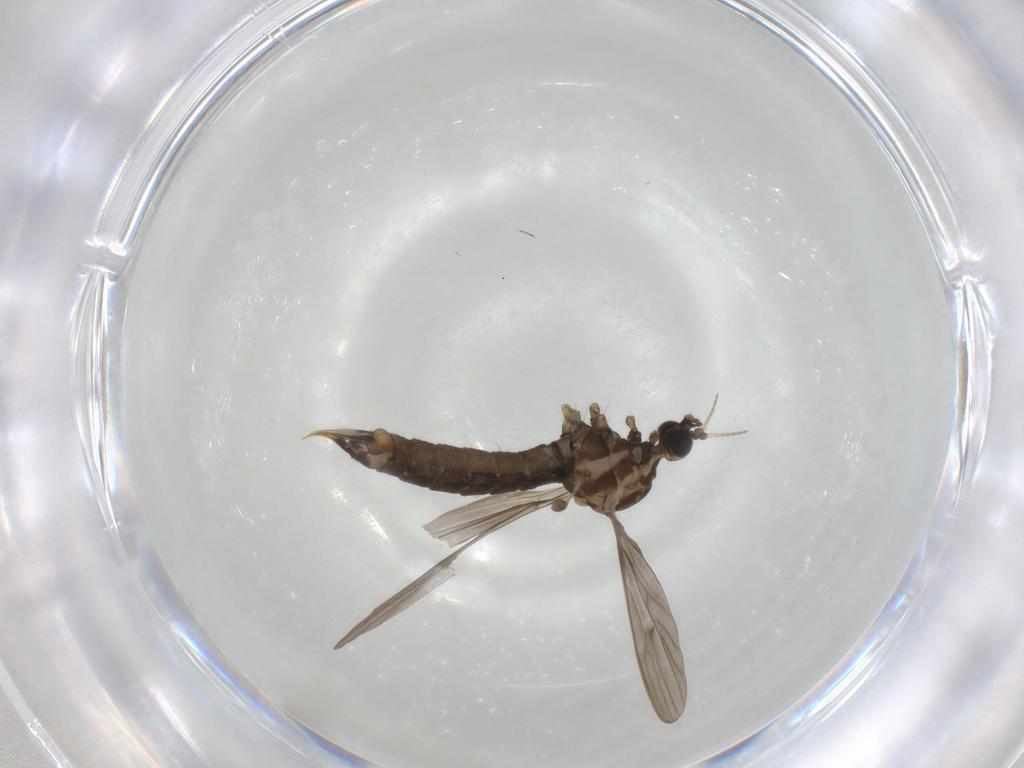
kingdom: Animalia
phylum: Arthropoda
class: Insecta
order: Diptera
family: Limoniidae
